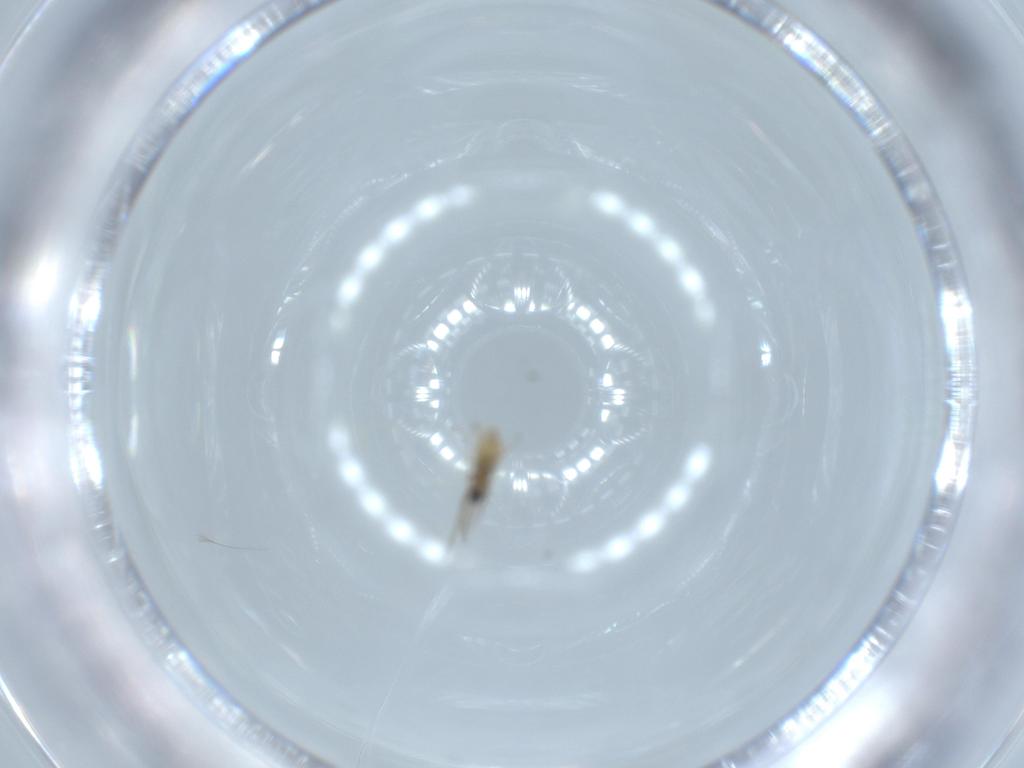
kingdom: Animalia
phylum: Arthropoda
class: Insecta
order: Diptera
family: Cecidomyiidae
